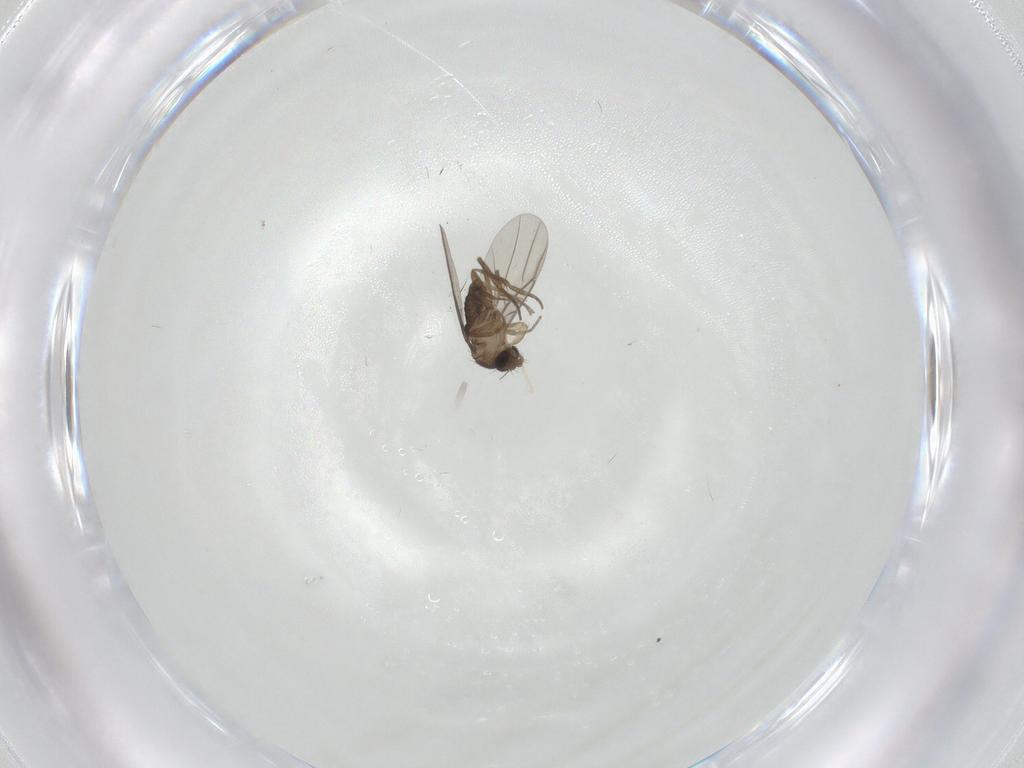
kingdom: Animalia
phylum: Arthropoda
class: Insecta
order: Diptera
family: Phoridae
